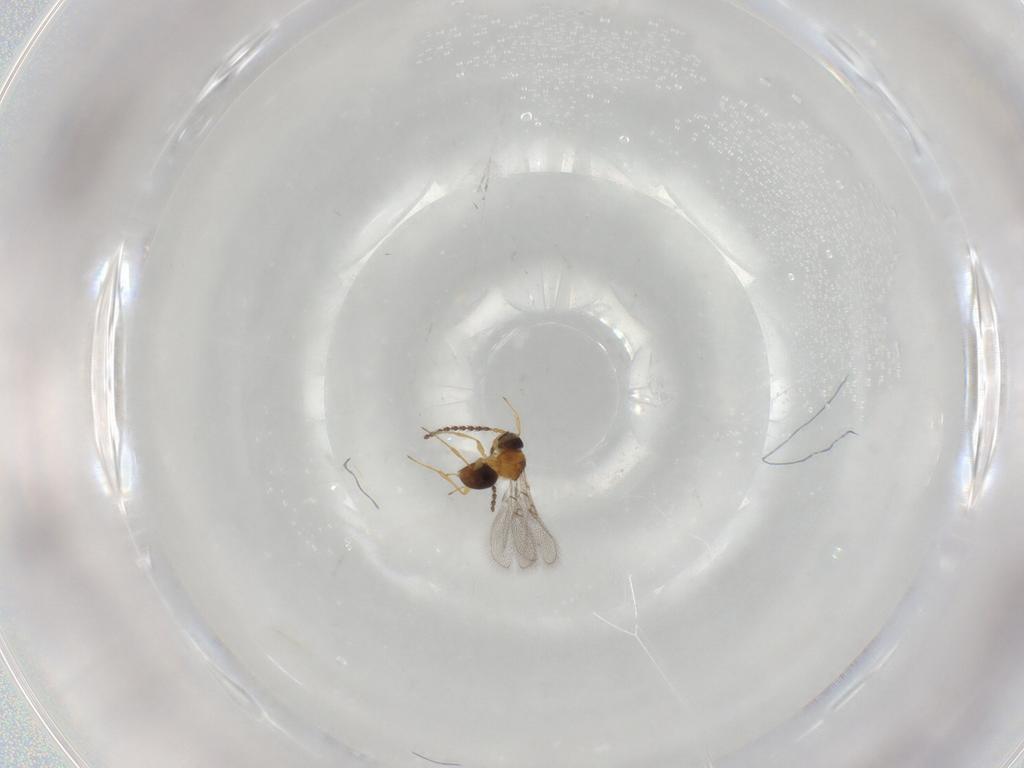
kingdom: Animalia
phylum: Arthropoda
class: Insecta
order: Hymenoptera
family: Figitidae
